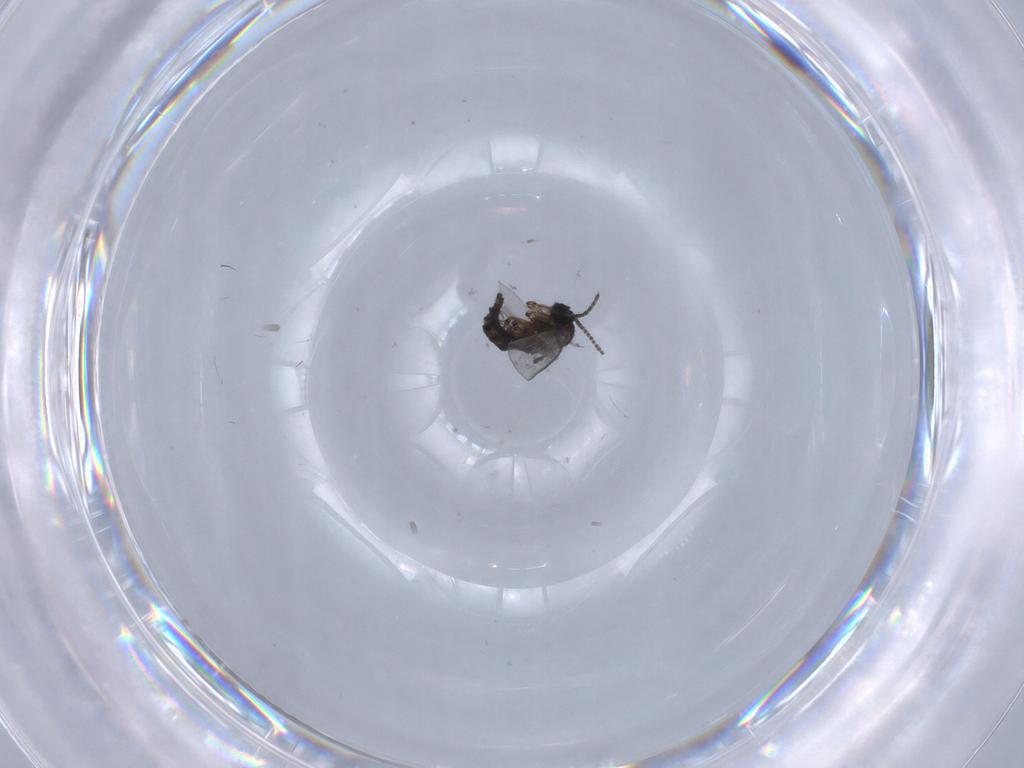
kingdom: Animalia
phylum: Arthropoda
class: Insecta
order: Diptera
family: Cecidomyiidae
